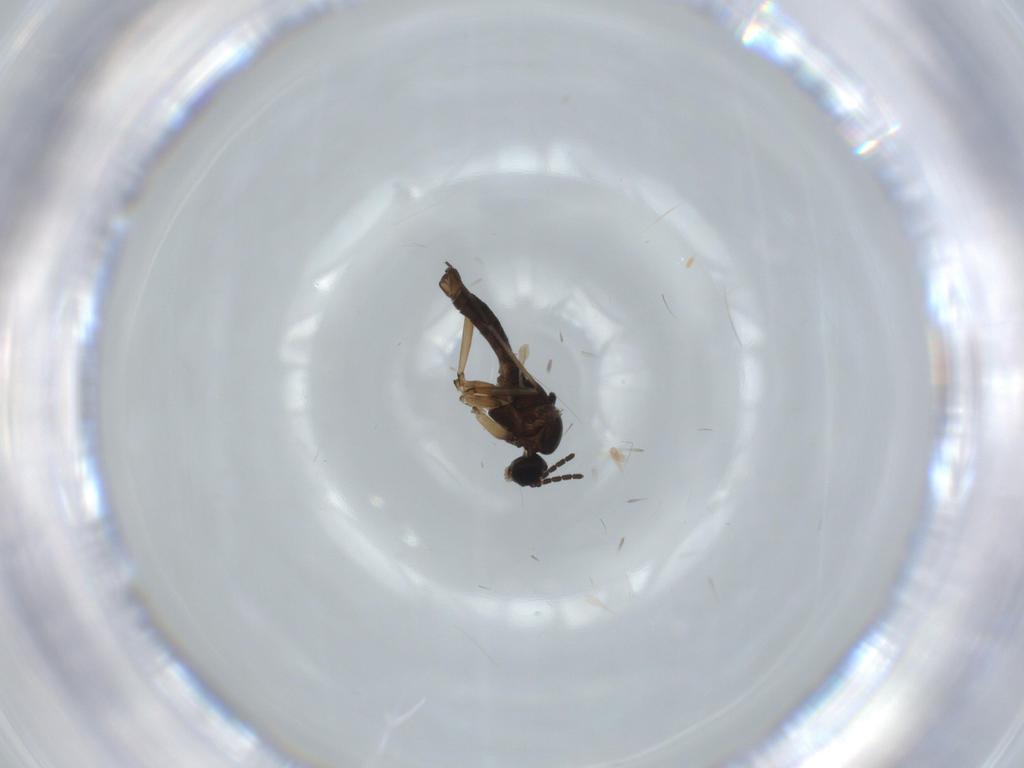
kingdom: Animalia
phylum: Arthropoda
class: Insecta
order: Diptera
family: Sciaridae
